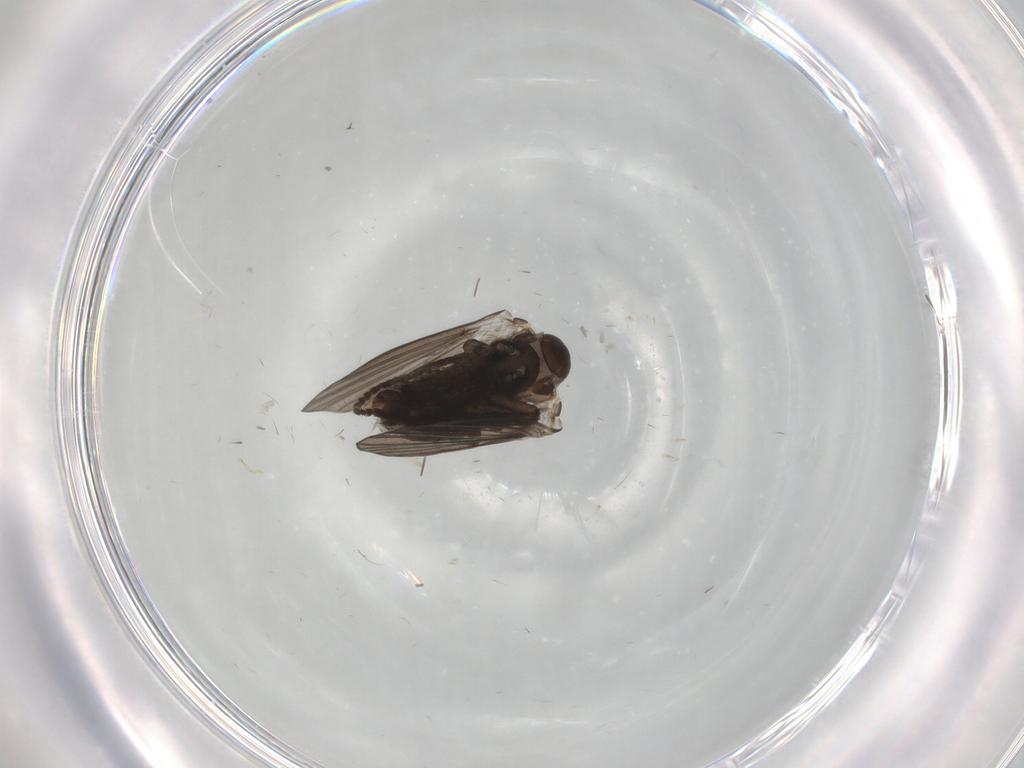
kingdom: Animalia
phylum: Arthropoda
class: Insecta
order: Diptera
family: Psychodidae
